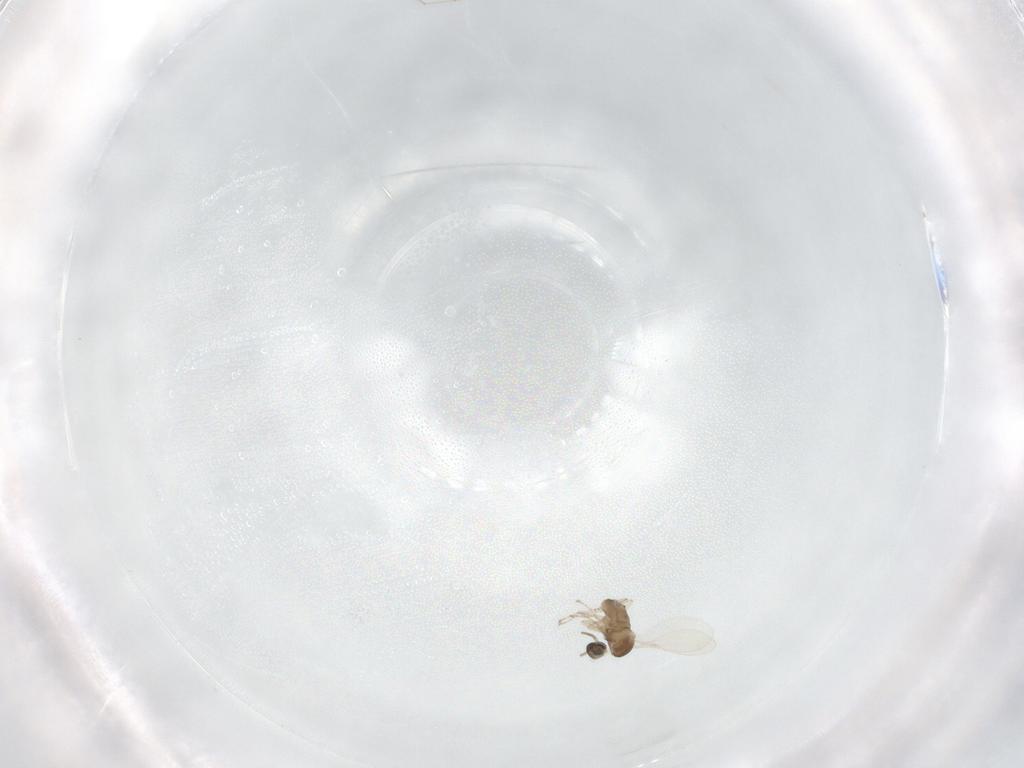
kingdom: Animalia
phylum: Arthropoda
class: Insecta
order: Diptera
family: Cecidomyiidae
